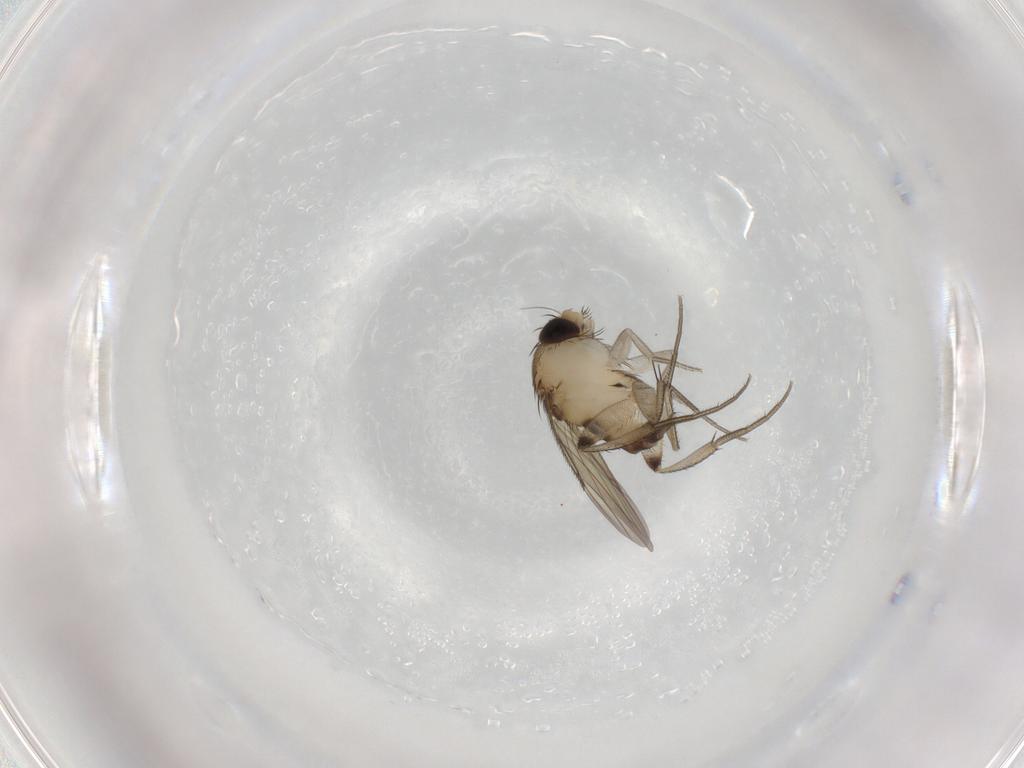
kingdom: Animalia
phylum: Arthropoda
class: Insecta
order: Diptera
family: Phoridae
